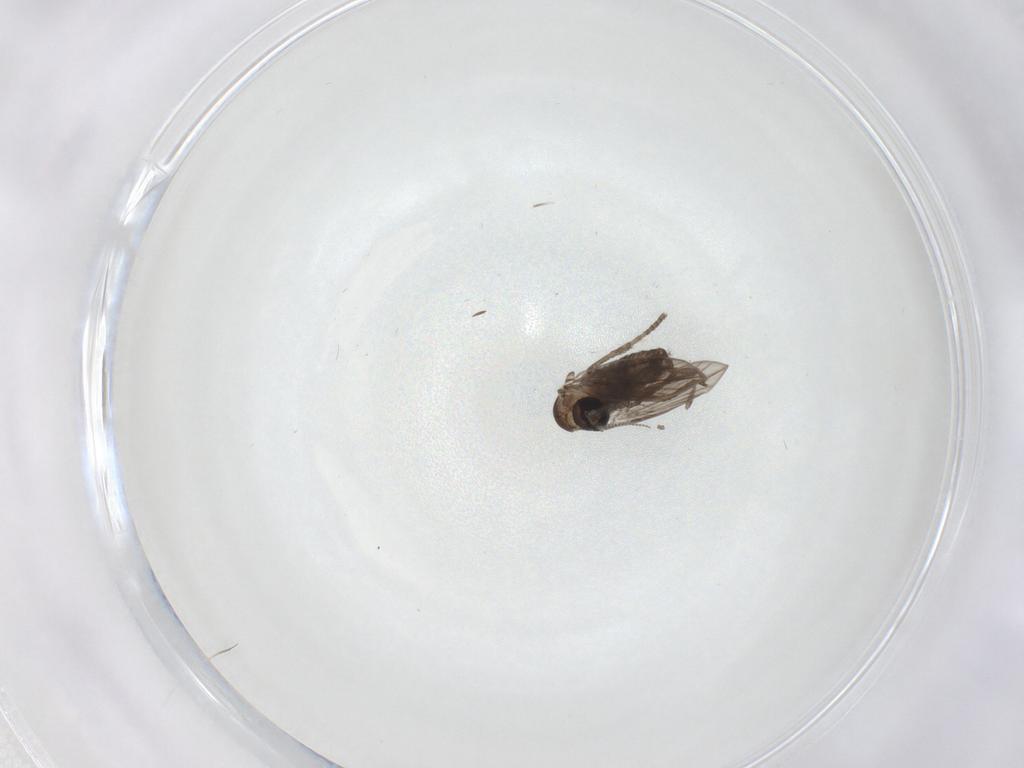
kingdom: Animalia
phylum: Arthropoda
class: Insecta
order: Diptera
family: Psychodidae
